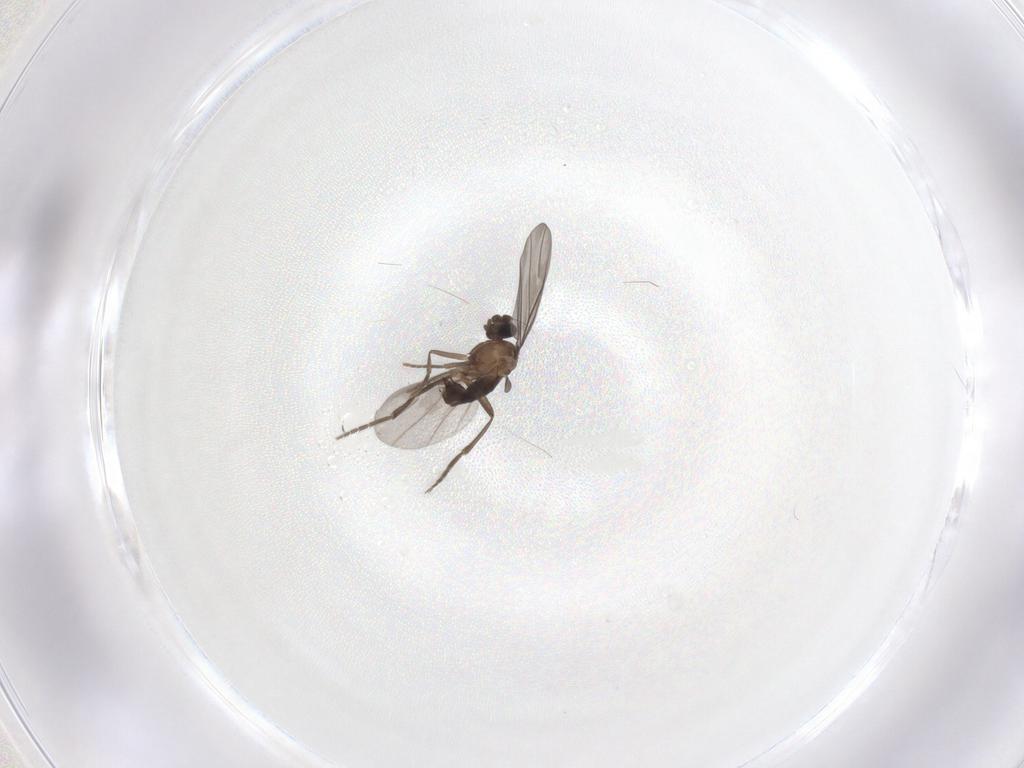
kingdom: Animalia
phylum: Arthropoda
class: Insecta
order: Diptera
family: Phoridae
